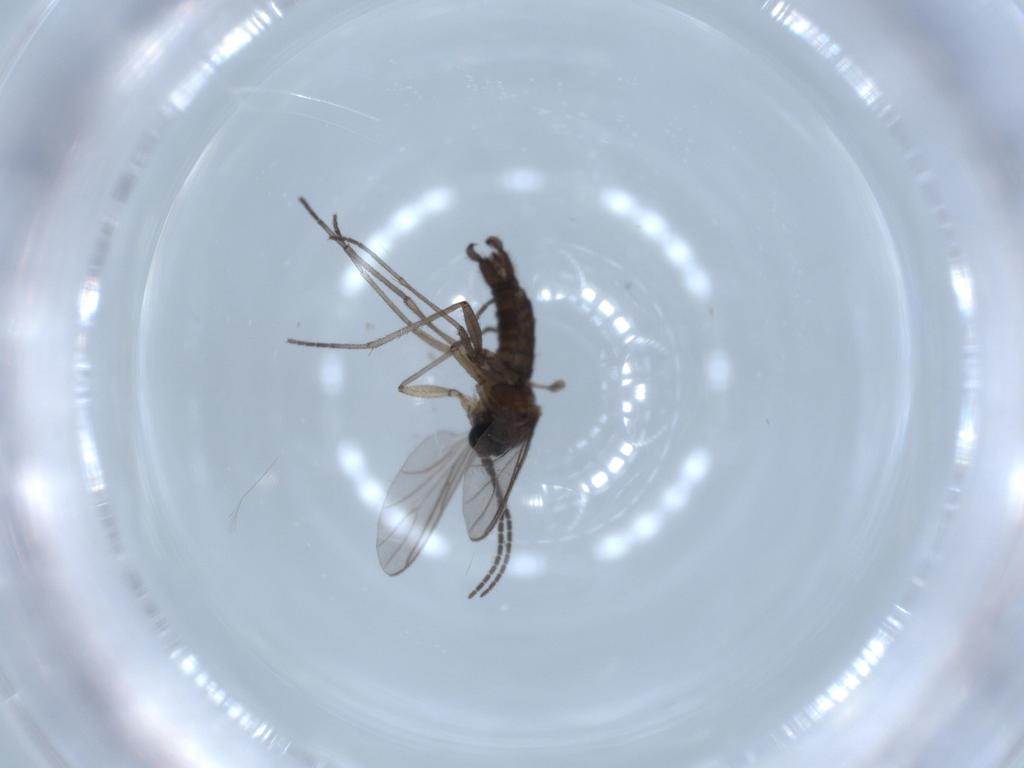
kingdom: Animalia
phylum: Arthropoda
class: Insecta
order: Diptera
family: Sciaridae
